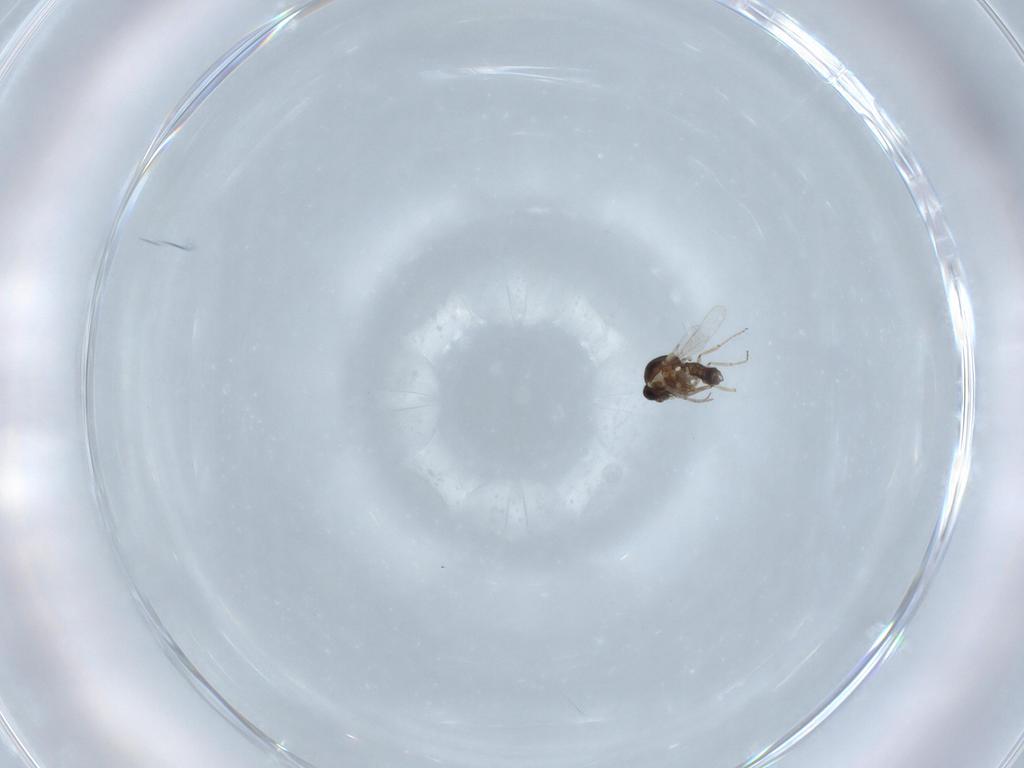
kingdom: Animalia
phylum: Arthropoda
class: Insecta
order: Diptera
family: Ceratopogonidae
